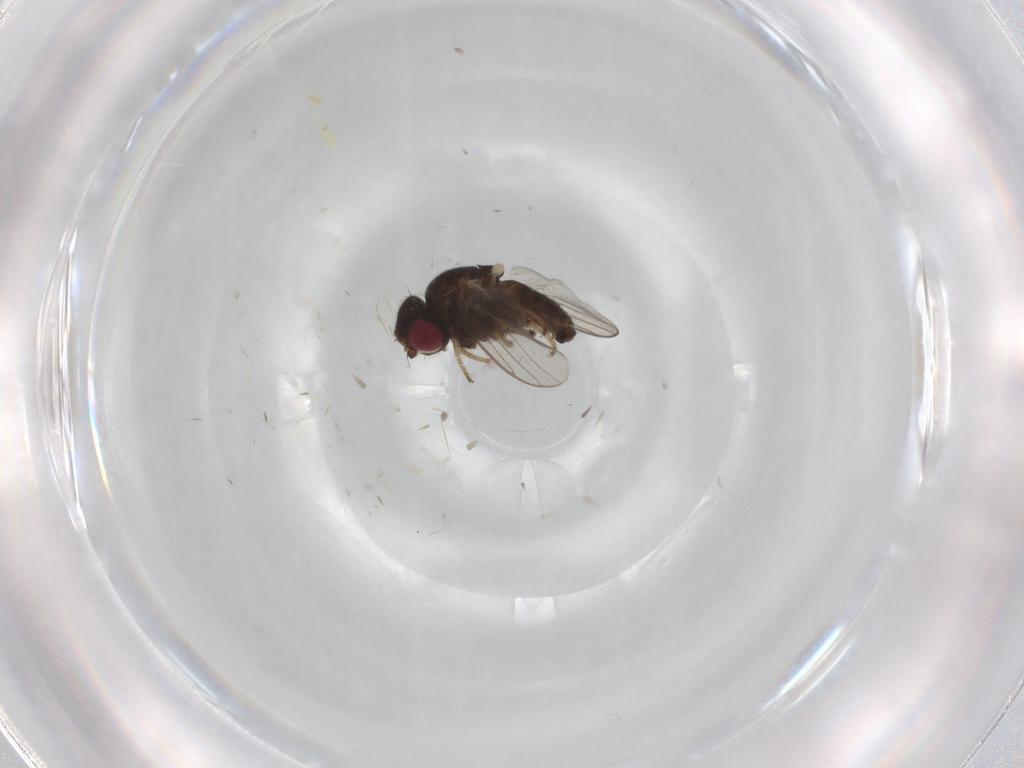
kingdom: Animalia
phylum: Arthropoda
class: Insecta
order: Diptera
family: Chloropidae
